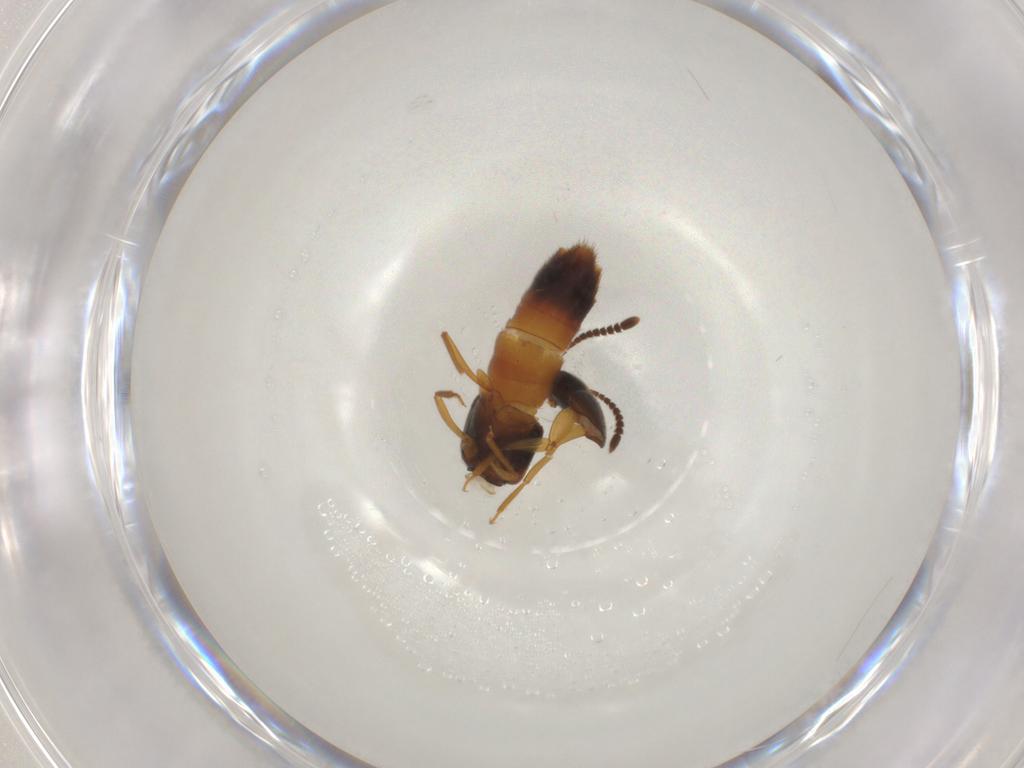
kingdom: Animalia
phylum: Arthropoda
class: Insecta
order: Coleoptera
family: Staphylinidae
